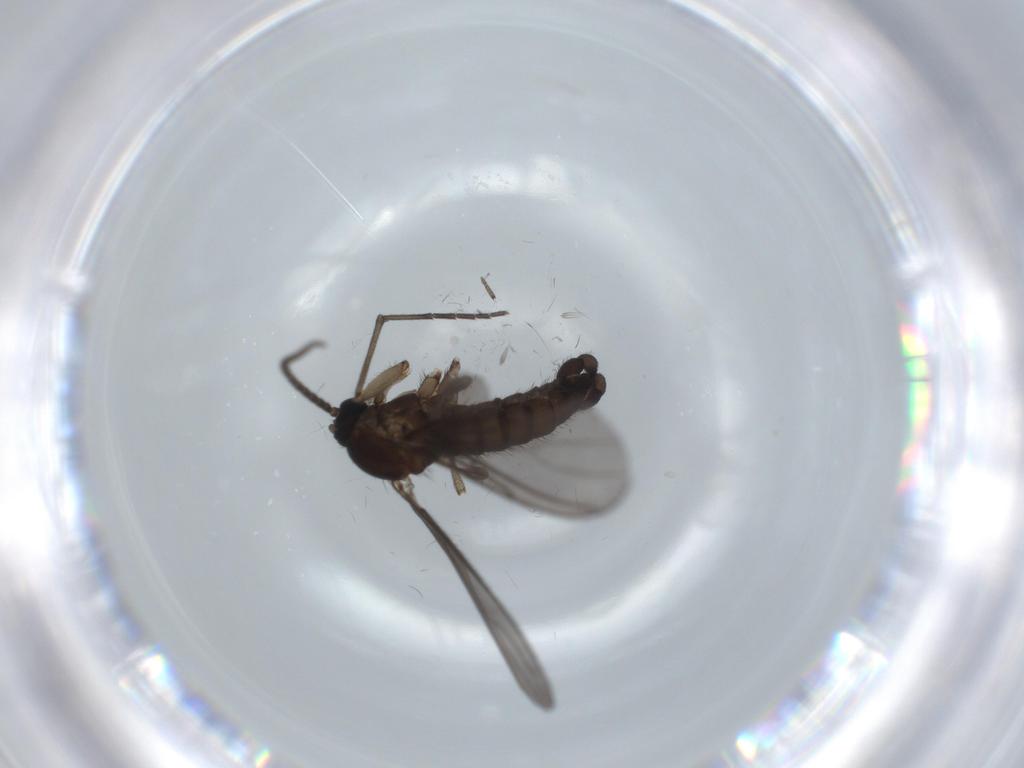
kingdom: Animalia
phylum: Arthropoda
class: Insecta
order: Diptera
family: Sciaridae
